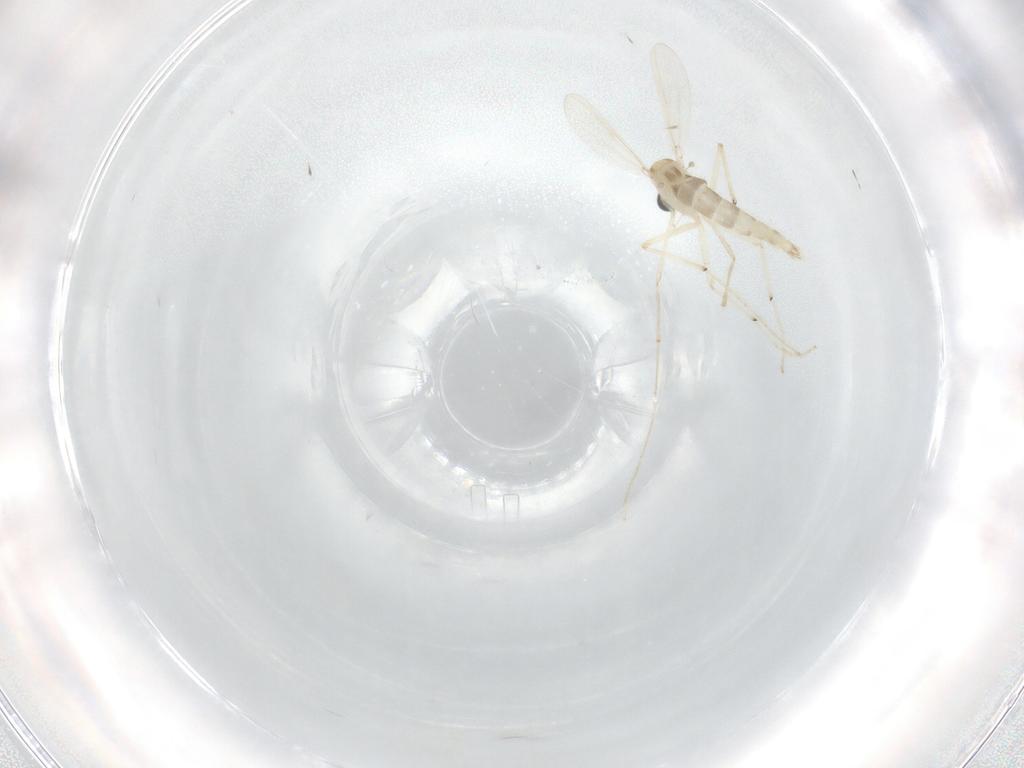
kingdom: Animalia
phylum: Arthropoda
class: Insecta
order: Diptera
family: Chironomidae
